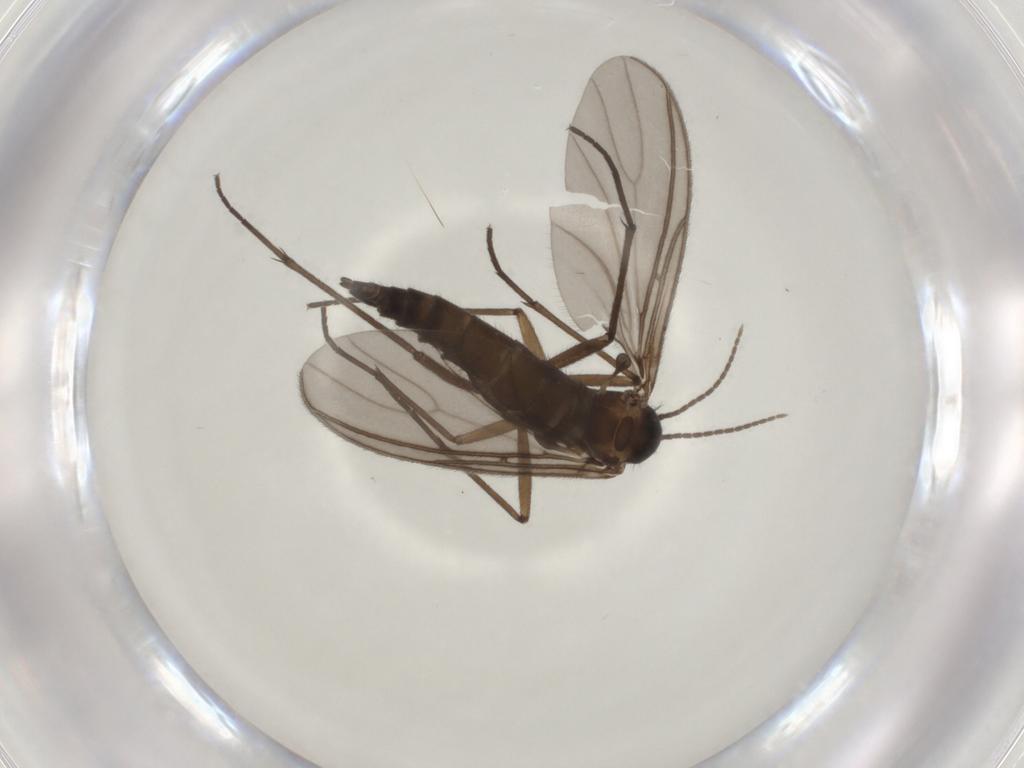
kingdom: Animalia
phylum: Arthropoda
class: Insecta
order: Diptera
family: Sciaridae
